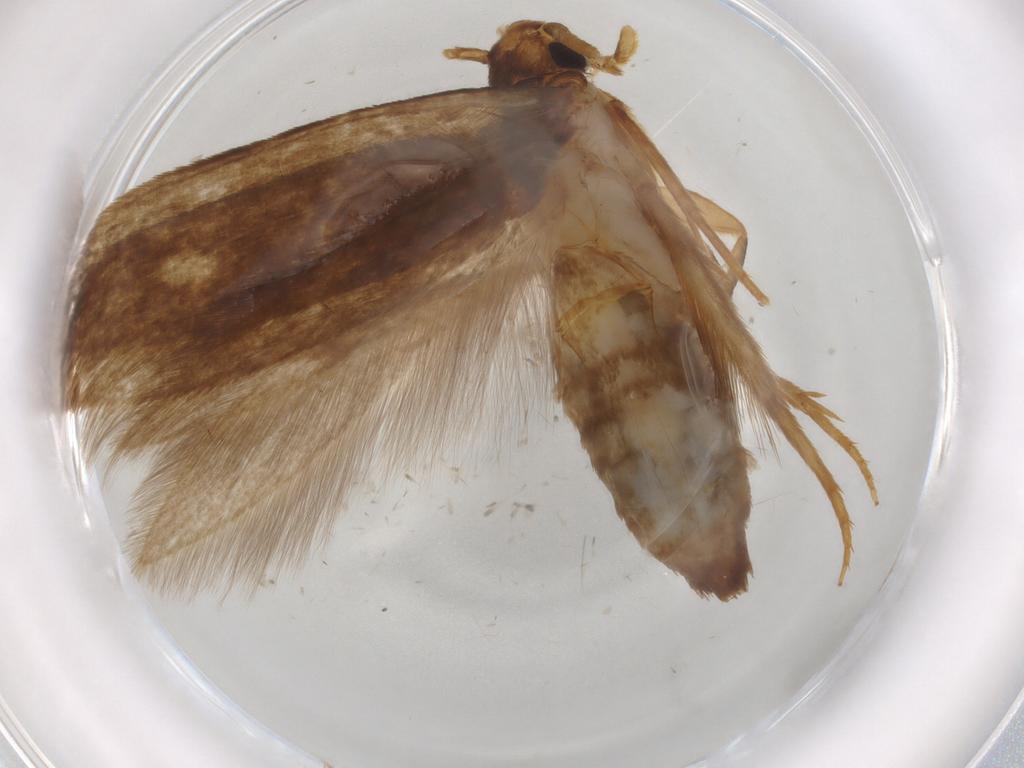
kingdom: Animalia
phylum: Arthropoda
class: Insecta
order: Lepidoptera
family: Tineidae
